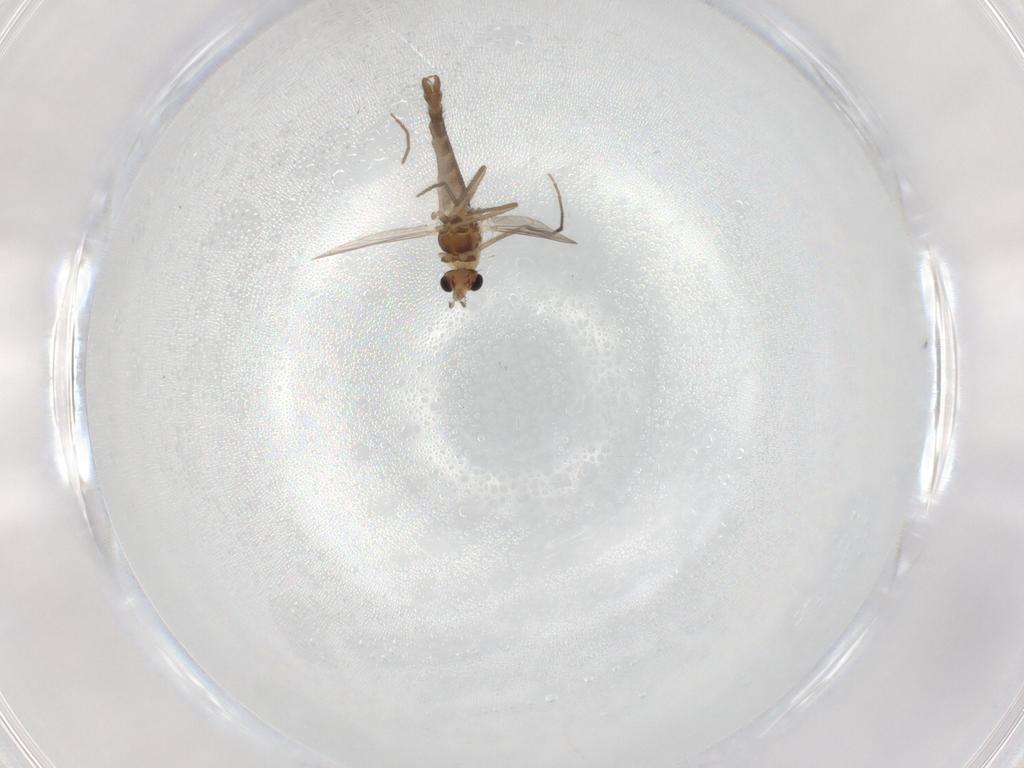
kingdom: Animalia
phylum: Arthropoda
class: Insecta
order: Diptera
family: Chironomidae
